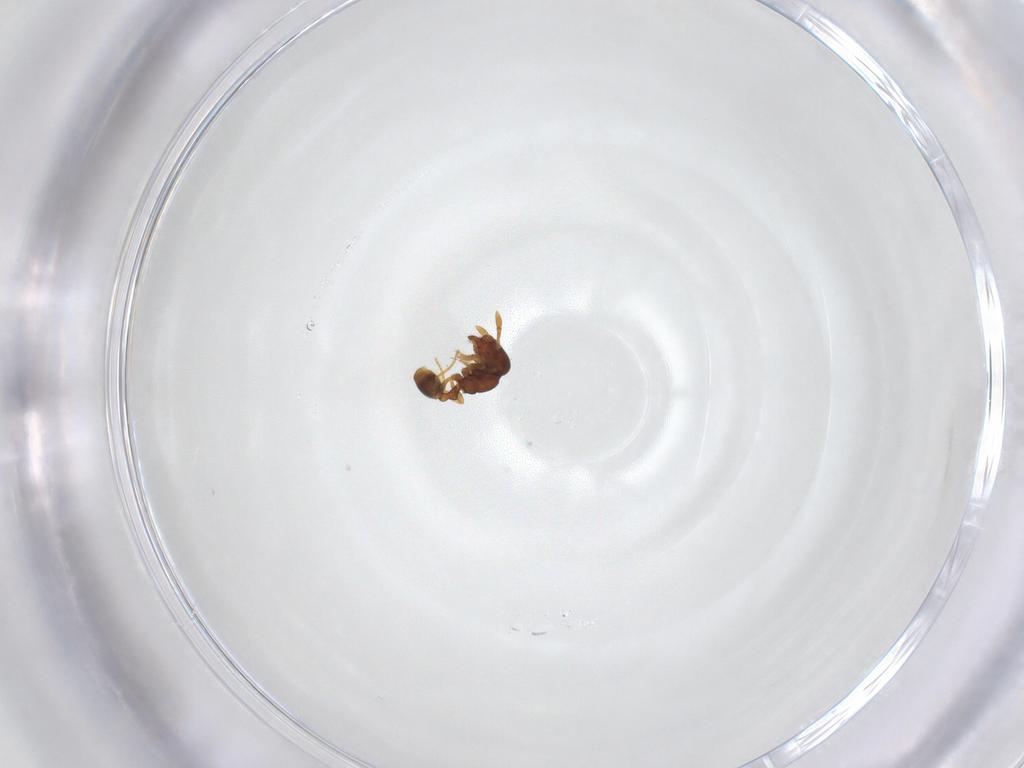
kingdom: Animalia
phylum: Arthropoda
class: Insecta
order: Hymenoptera
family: Formicidae
